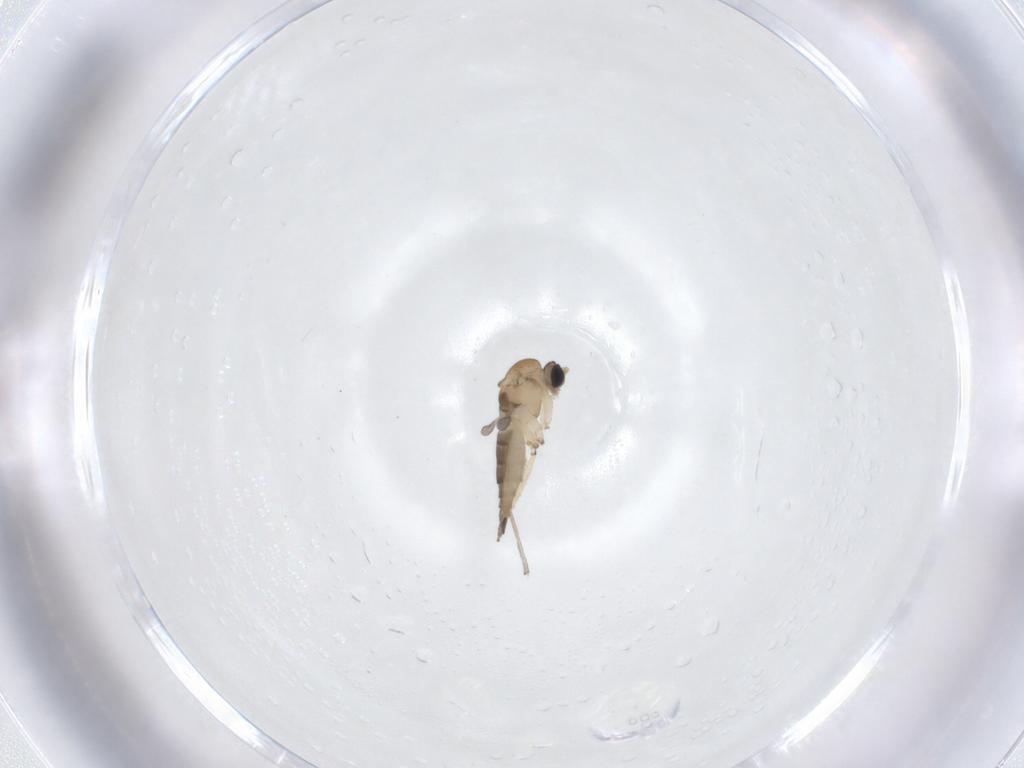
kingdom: Animalia
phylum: Arthropoda
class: Insecta
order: Diptera
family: Sciaridae
